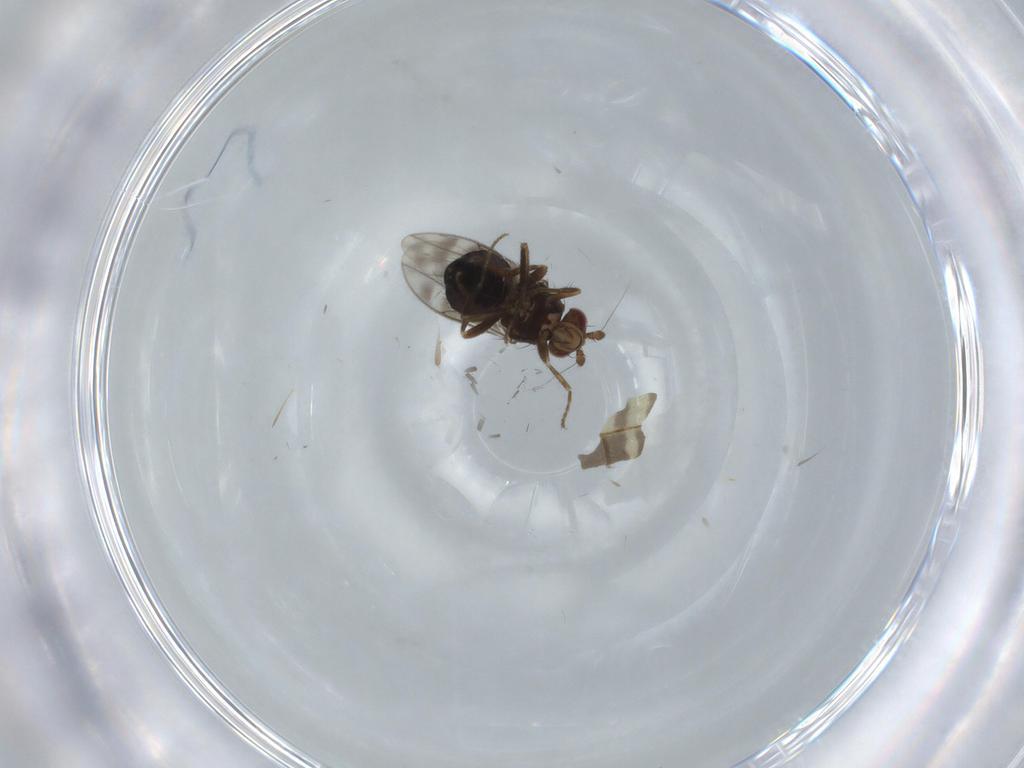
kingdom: Animalia
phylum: Arthropoda
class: Insecta
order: Diptera
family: Sphaeroceridae
